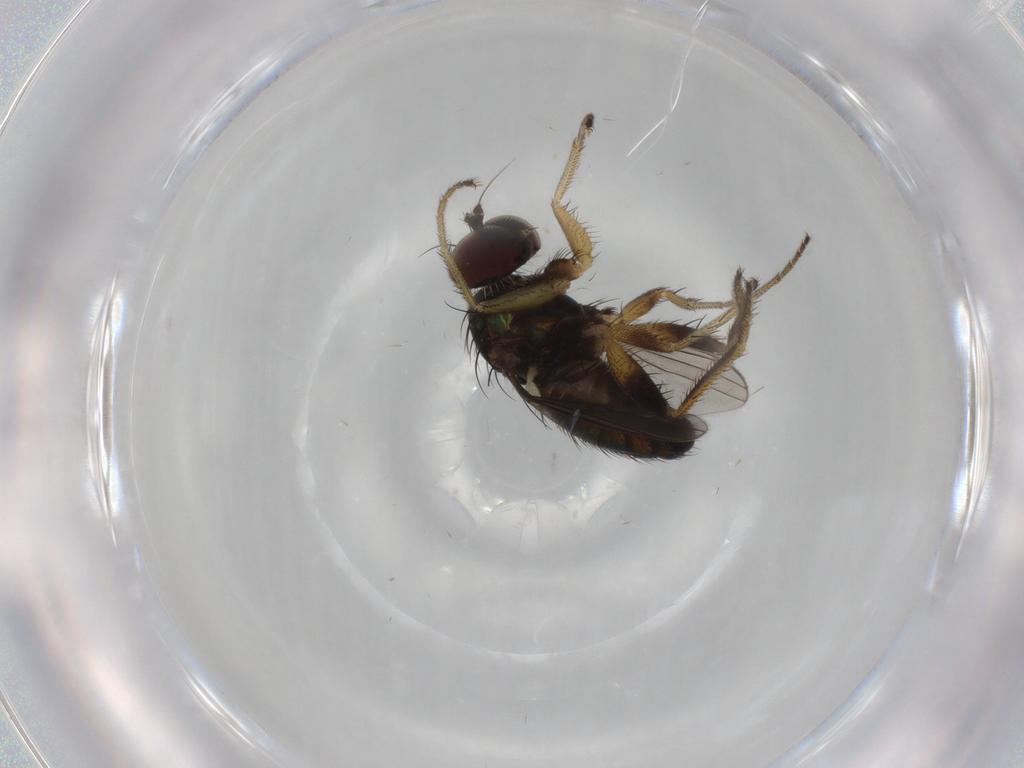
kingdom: Animalia
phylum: Arthropoda
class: Insecta
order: Diptera
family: Dolichopodidae
